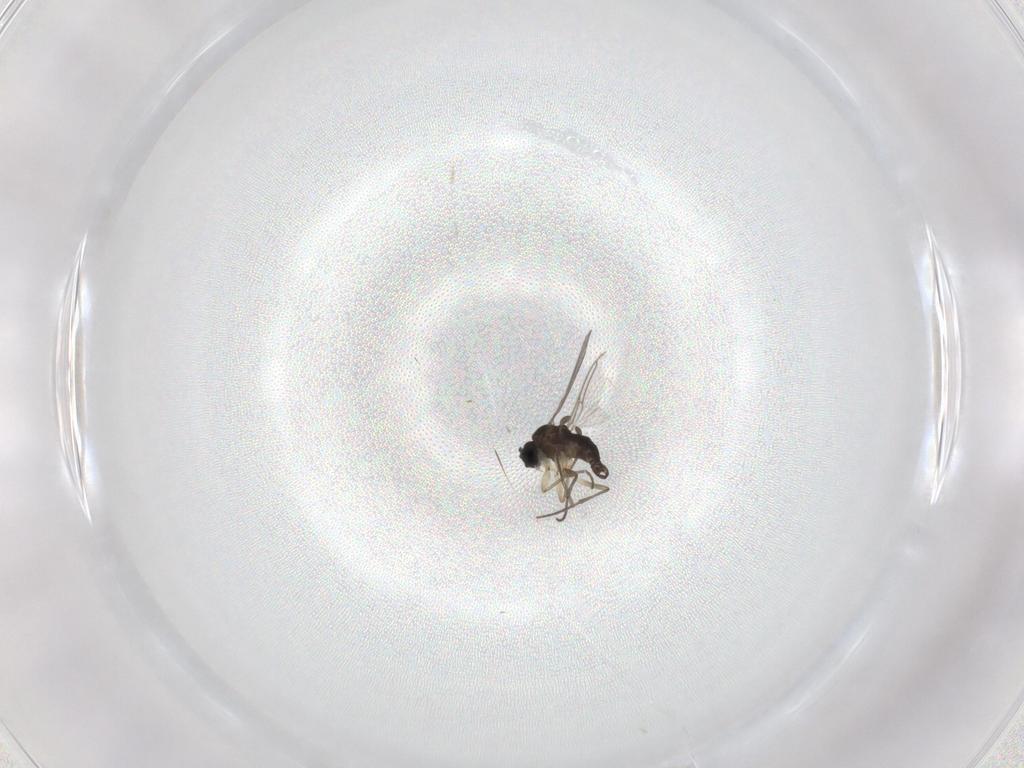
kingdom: Animalia
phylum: Arthropoda
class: Insecta
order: Diptera
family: Sciaridae
